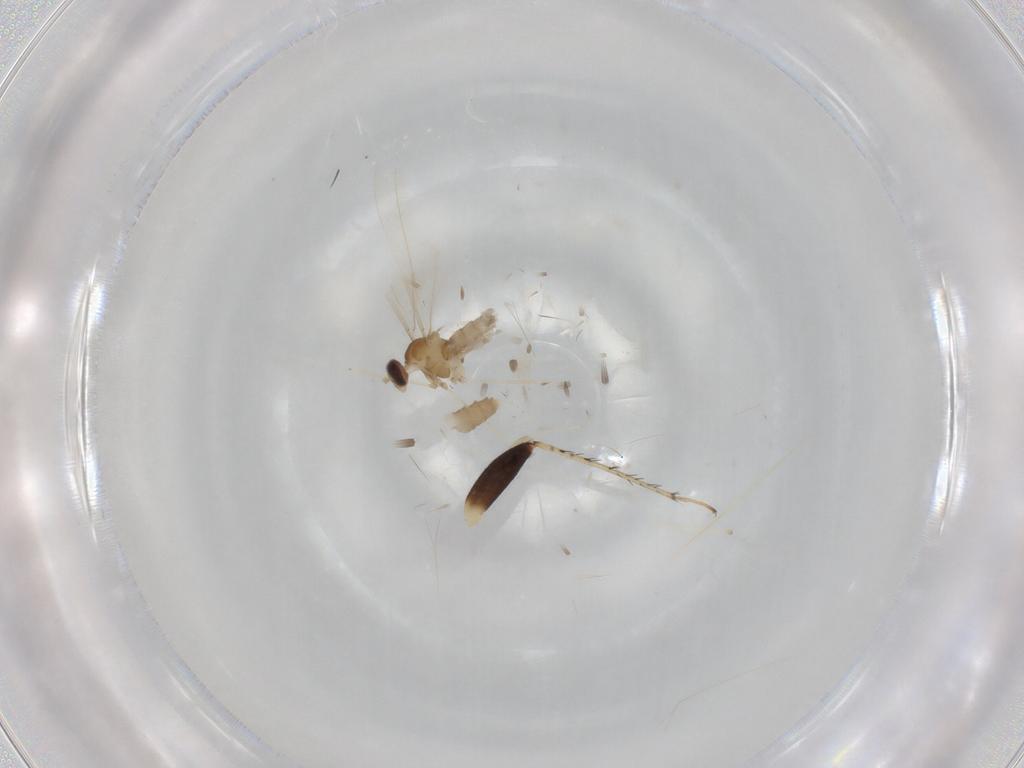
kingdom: Animalia
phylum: Arthropoda
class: Insecta
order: Diptera
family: Cecidomyiidae
